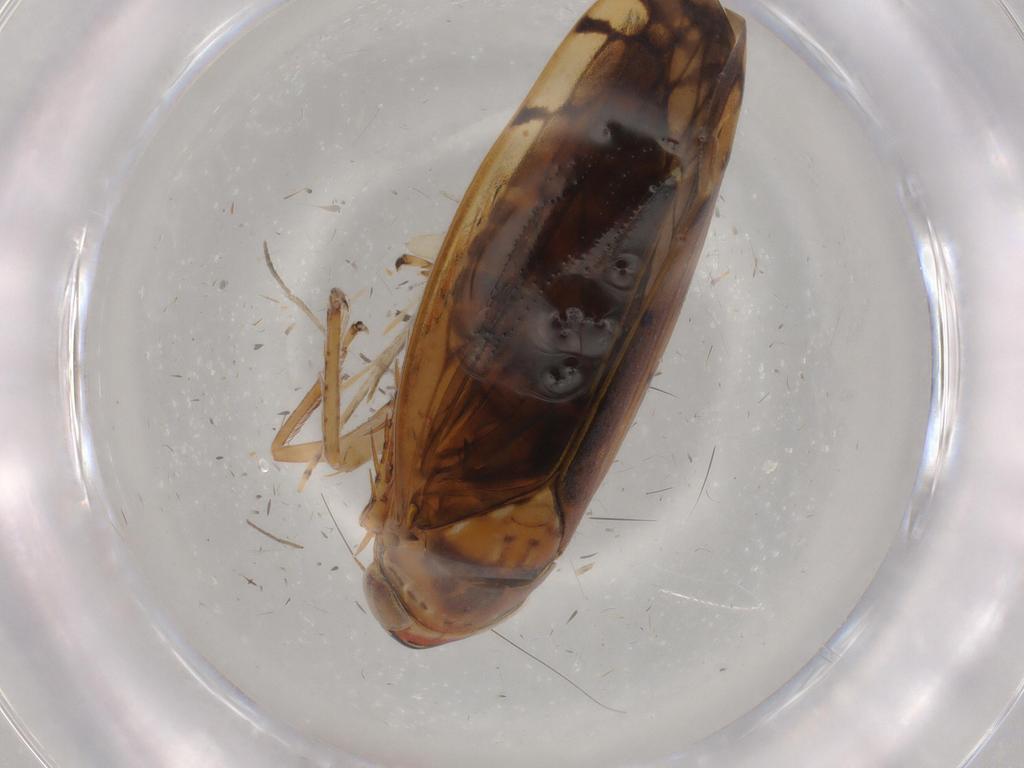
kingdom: Animalia
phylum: Arthropoda
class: Insecta
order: Hemiptera
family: Cicadellidae
